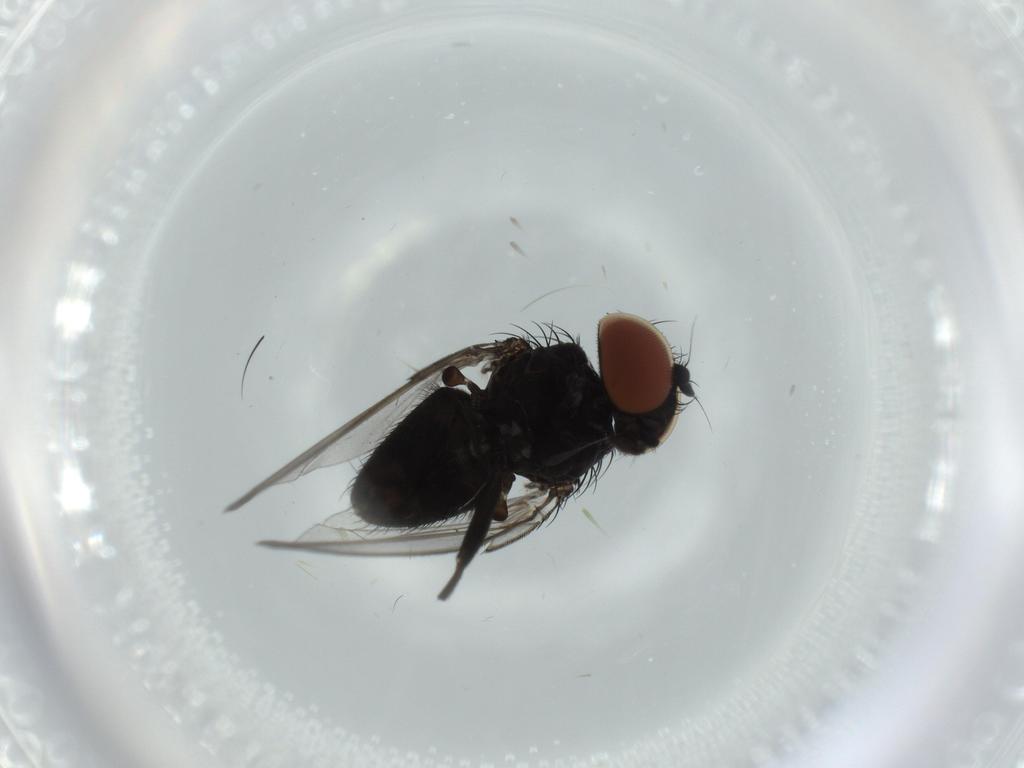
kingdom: Animalia
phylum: Arthropoda
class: Insecta
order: Diptera
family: Milichiidae
